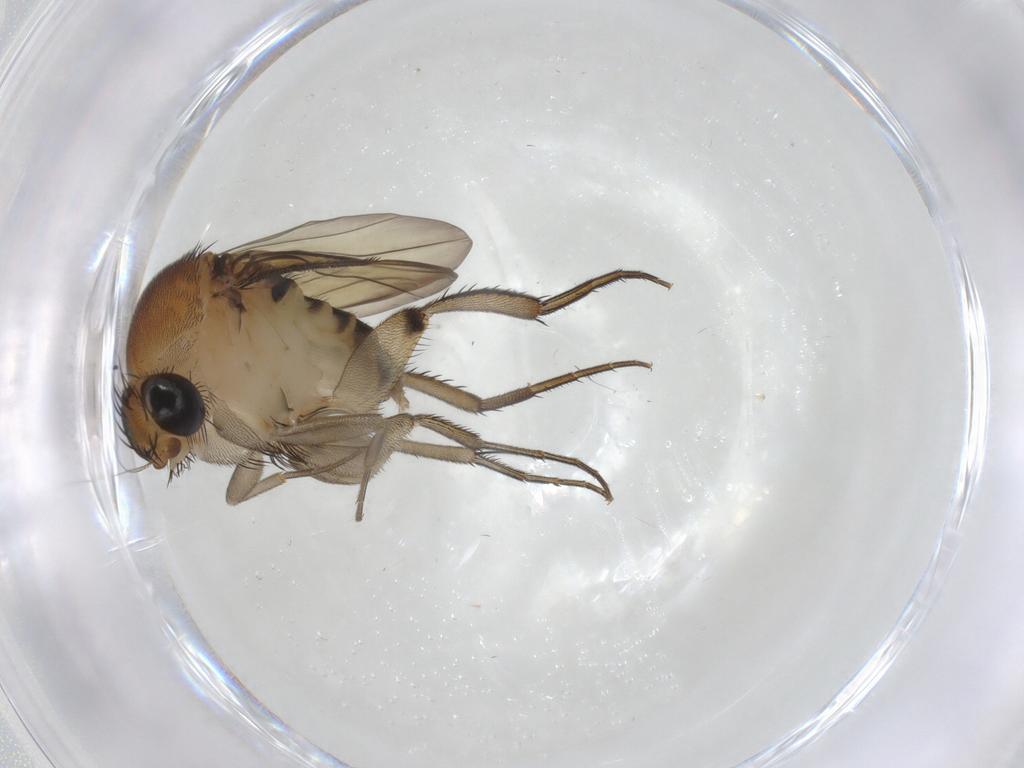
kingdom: Animalia
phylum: Arthropoda
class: Insecta
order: Diptera
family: Phoridae
